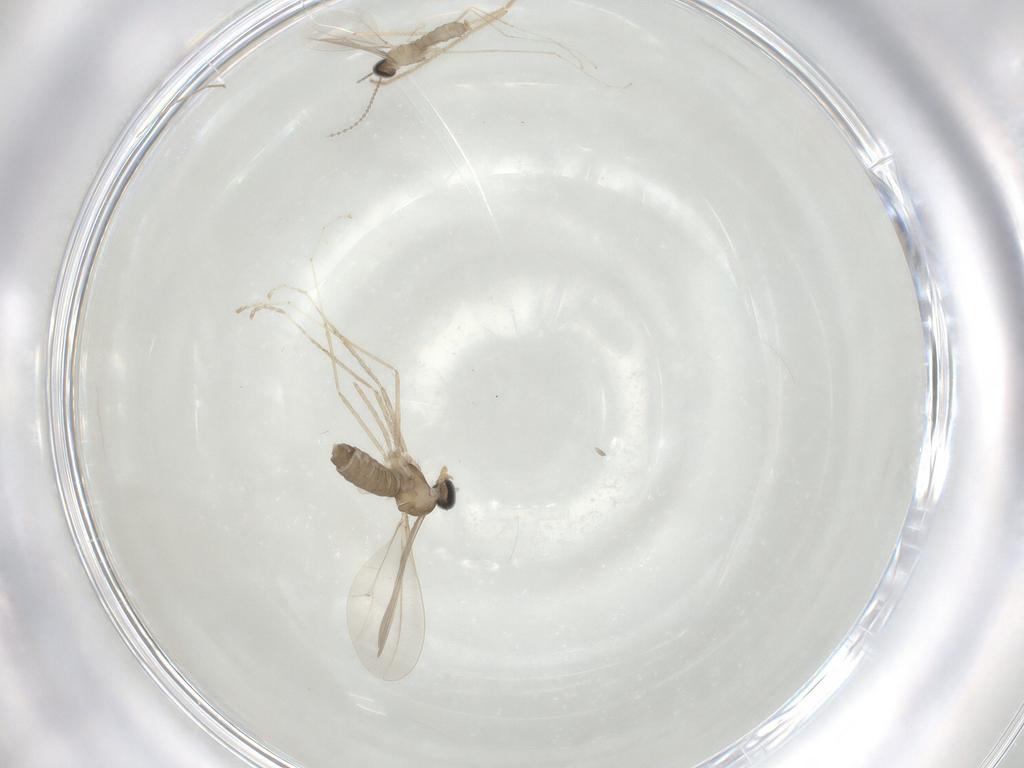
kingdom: Animalia
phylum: Arthropoda
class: Insecta
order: Diptera
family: Cecidomyiidae
